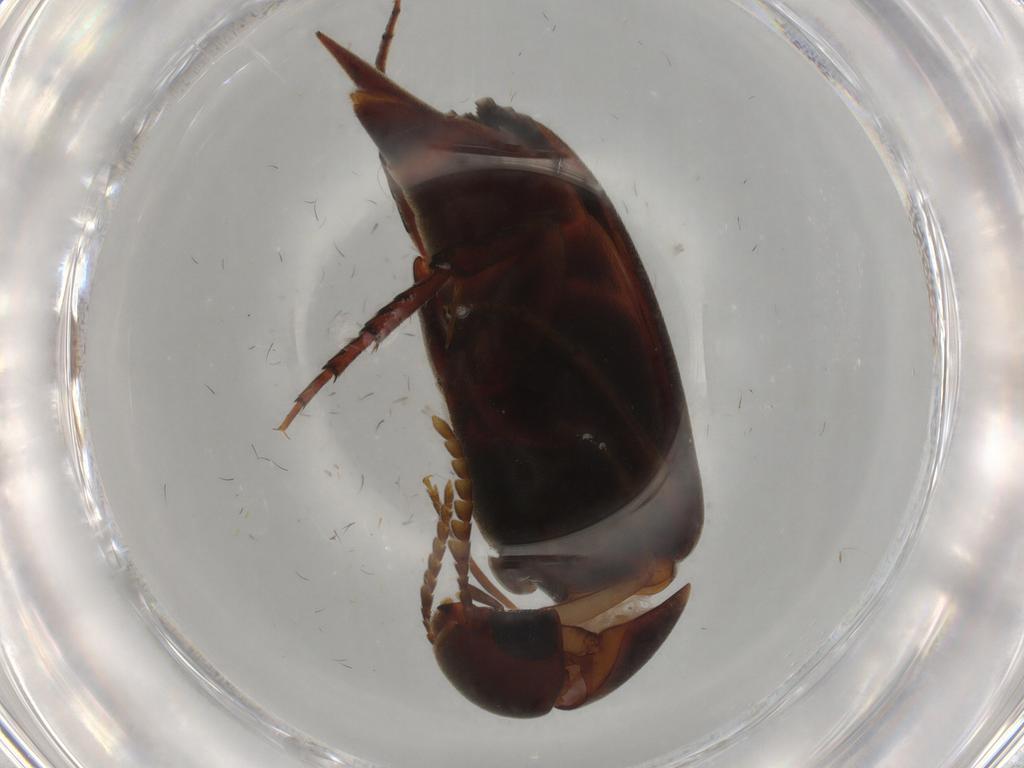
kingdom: Animalia
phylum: Arthropoda
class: Insecta
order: Coleoptera
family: Mordellidae
